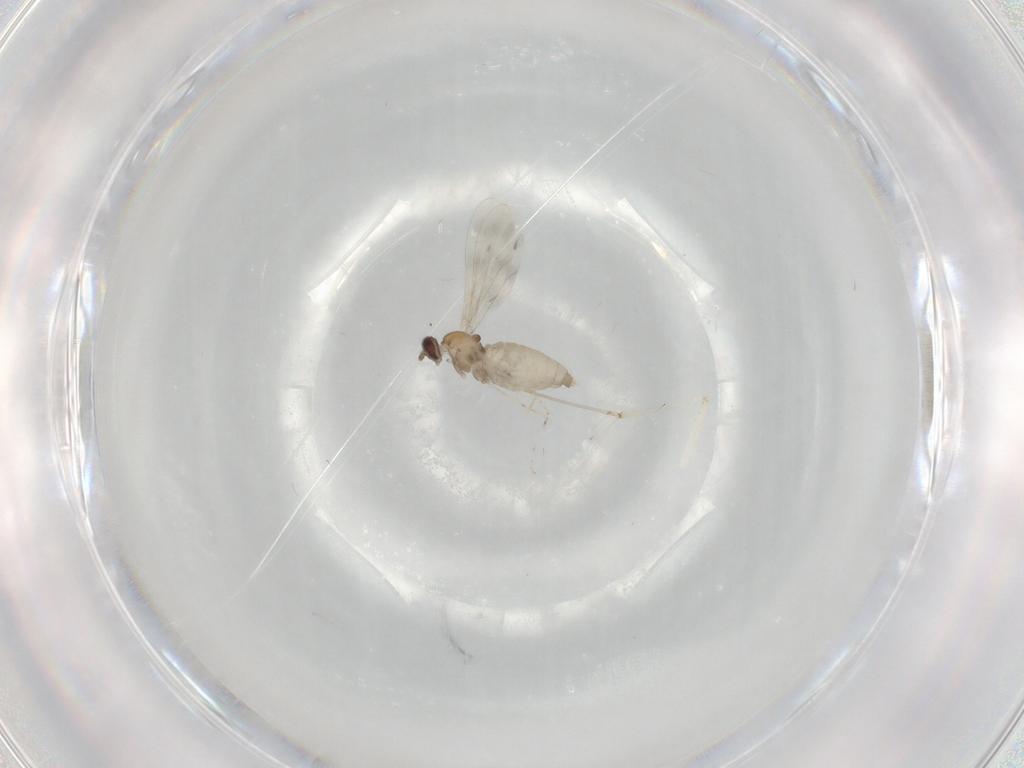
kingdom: Animalia
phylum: Arthropoda
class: Insecta
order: Diptera
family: Cecidomyiidae
